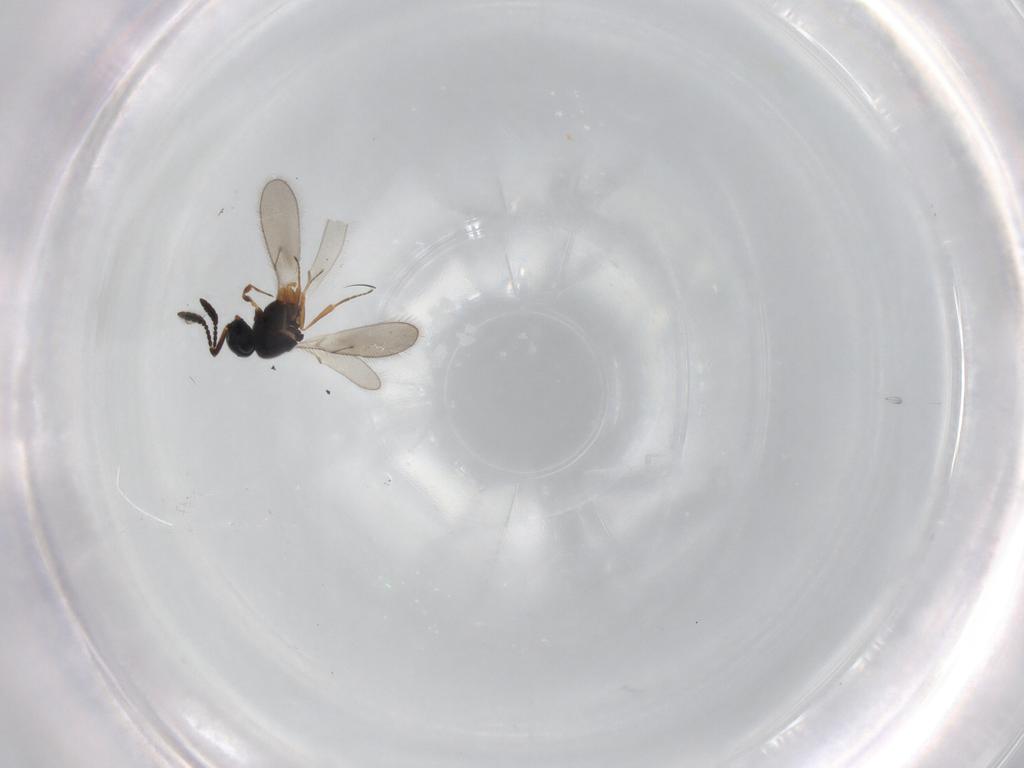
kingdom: Animalia
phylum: Arthropoda
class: Insecta
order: Hymenoptera
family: Scelionidae
